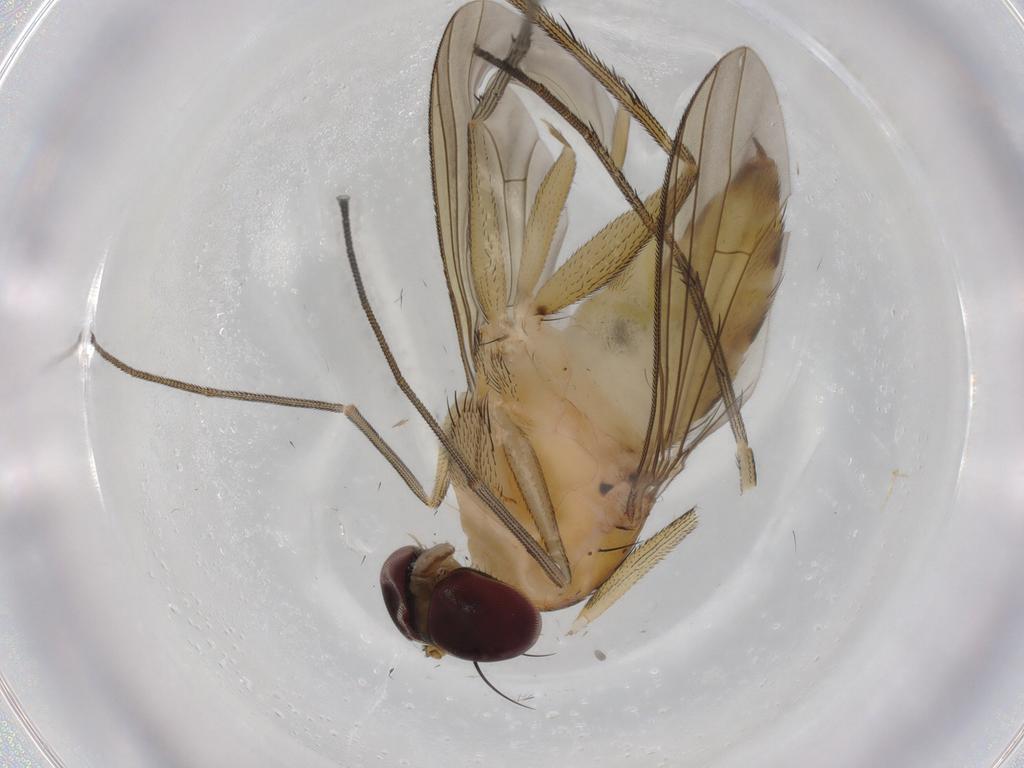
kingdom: Animalia
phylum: Arthropoda
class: Insecta
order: Diptera
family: Dolichopodidae
